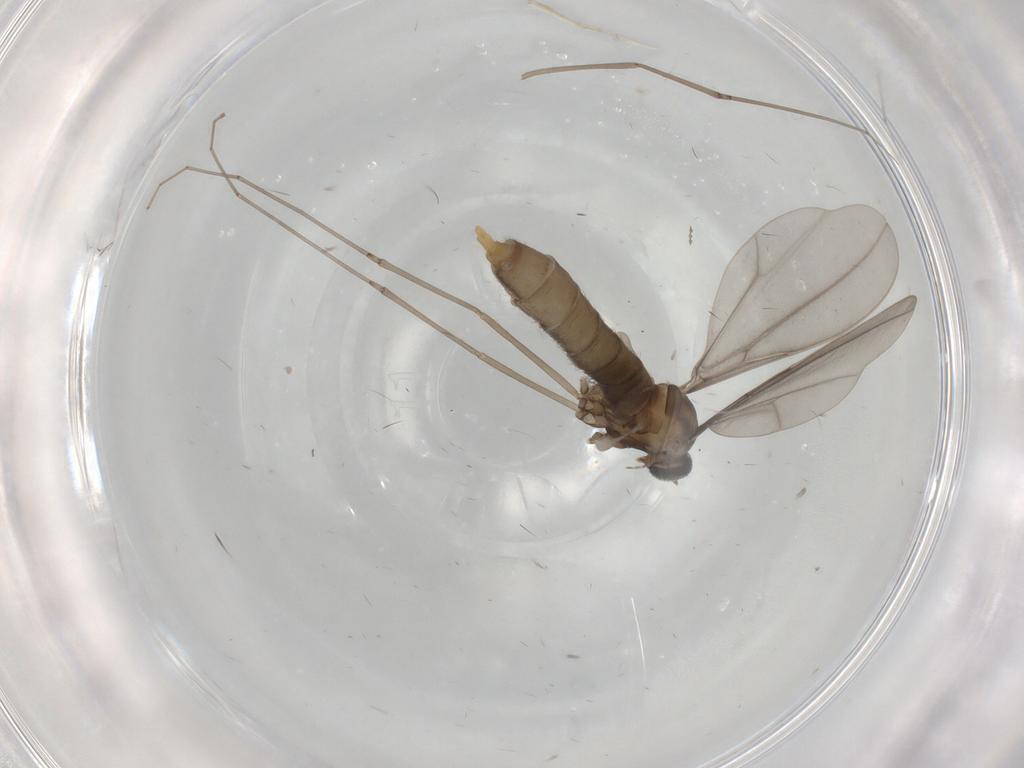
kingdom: Animalia
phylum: Arthropoda
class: Insecta
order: Diptera
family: Cecidomyiidae
